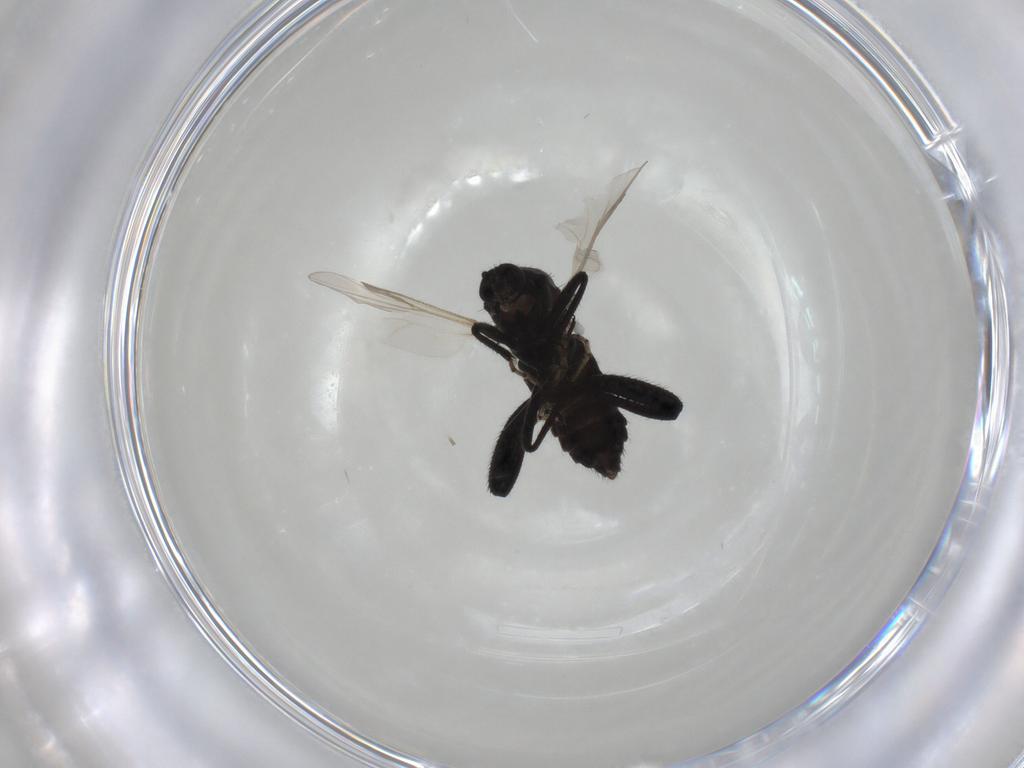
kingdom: Animalia
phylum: Arthropoda
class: Insecta
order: Diptera
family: Ceratopogonidae
